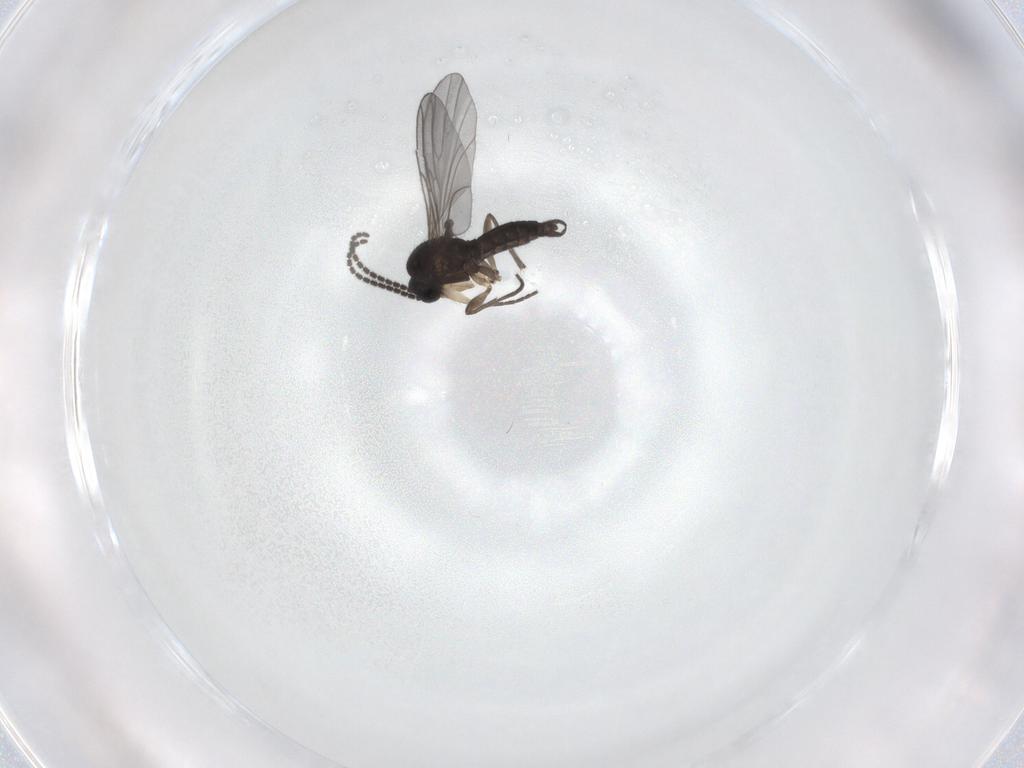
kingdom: Animalia
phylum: Arthropoda
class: Insecta
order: Diptera
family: Sciaridae
